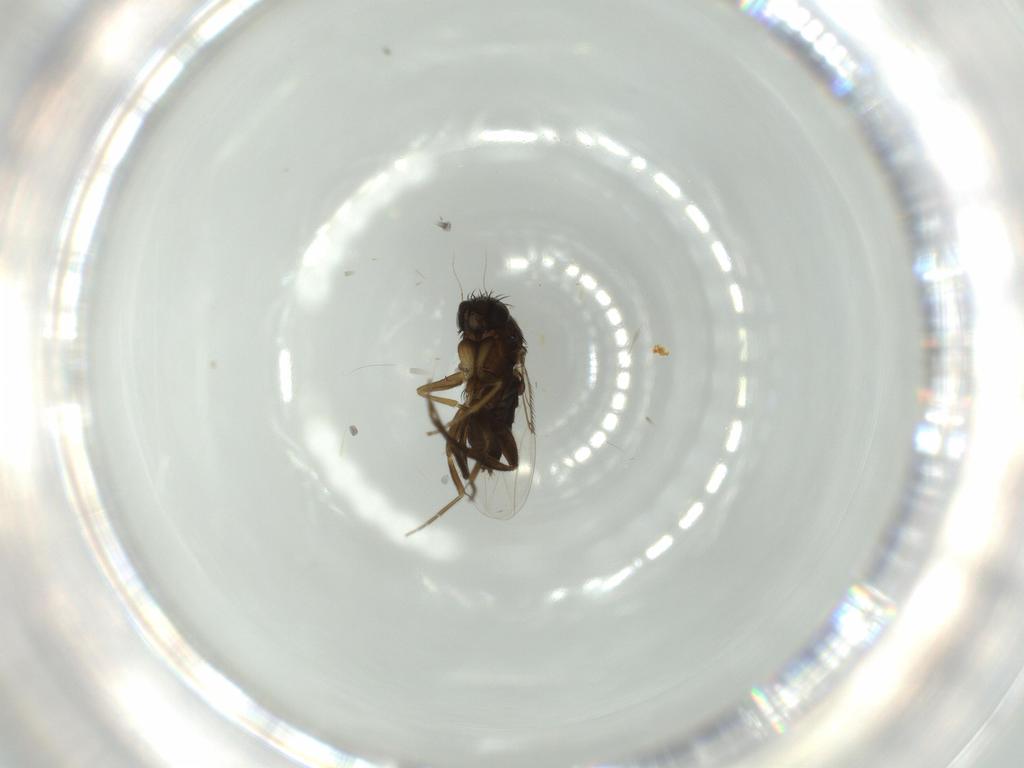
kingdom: Animalia
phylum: Arthropoda
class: Insecta
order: Diptera
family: Phoridae
